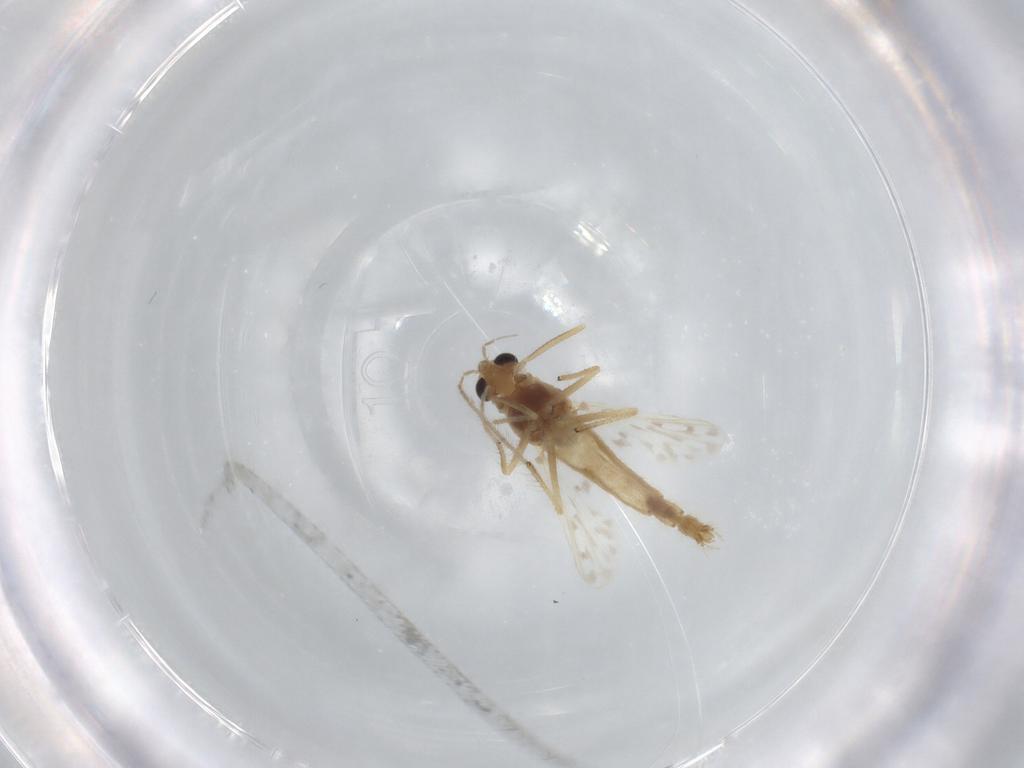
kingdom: Animalia
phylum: Arthropoda
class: Insecta
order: Diptera
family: Chironomidae
